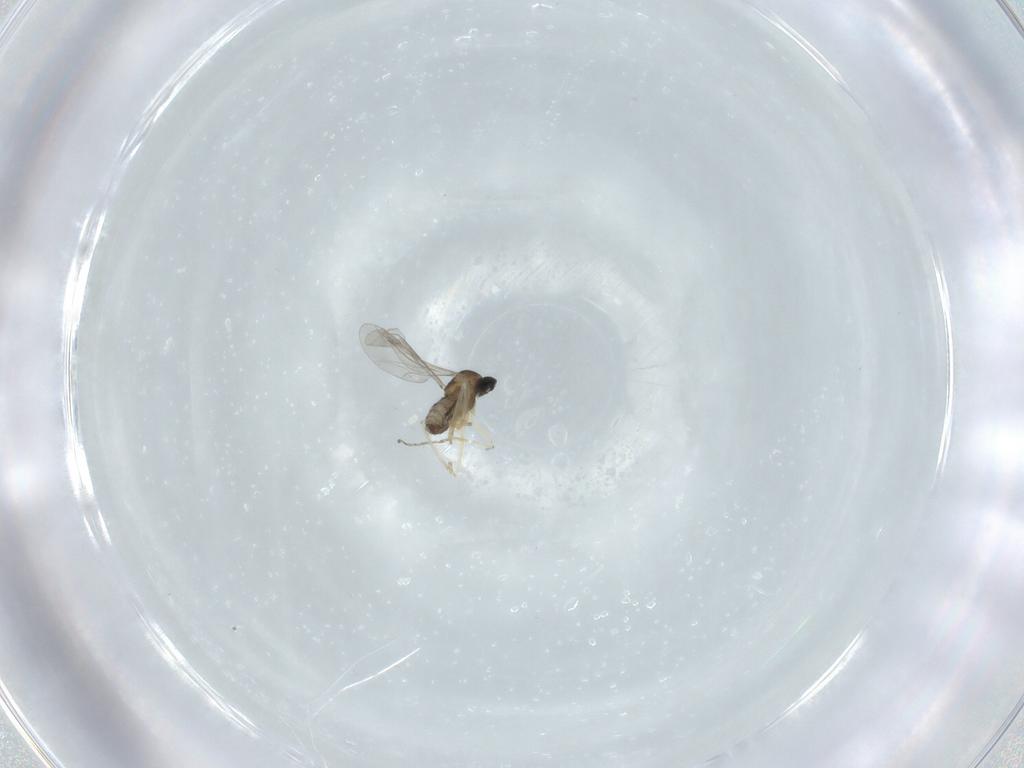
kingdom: Animalia
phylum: Arthropoda
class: Insecta
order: Diptera
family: Cecidomyiidae
